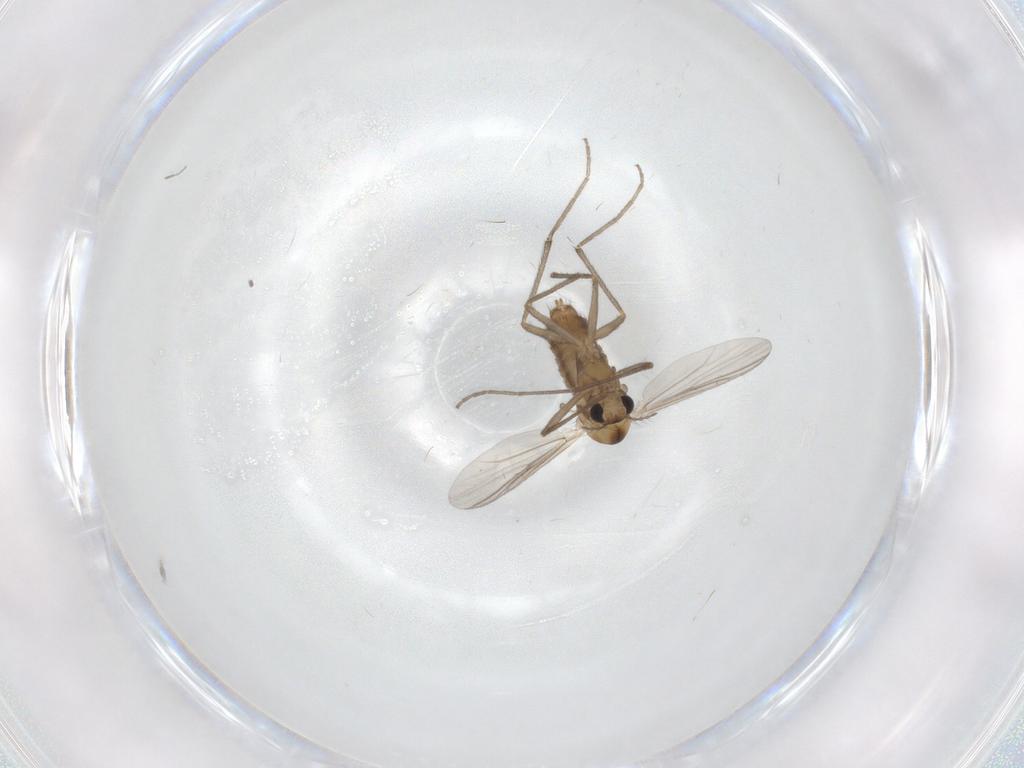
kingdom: Animalia
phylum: Arthropoda
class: Insecta
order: Diptera
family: Chironomidae
